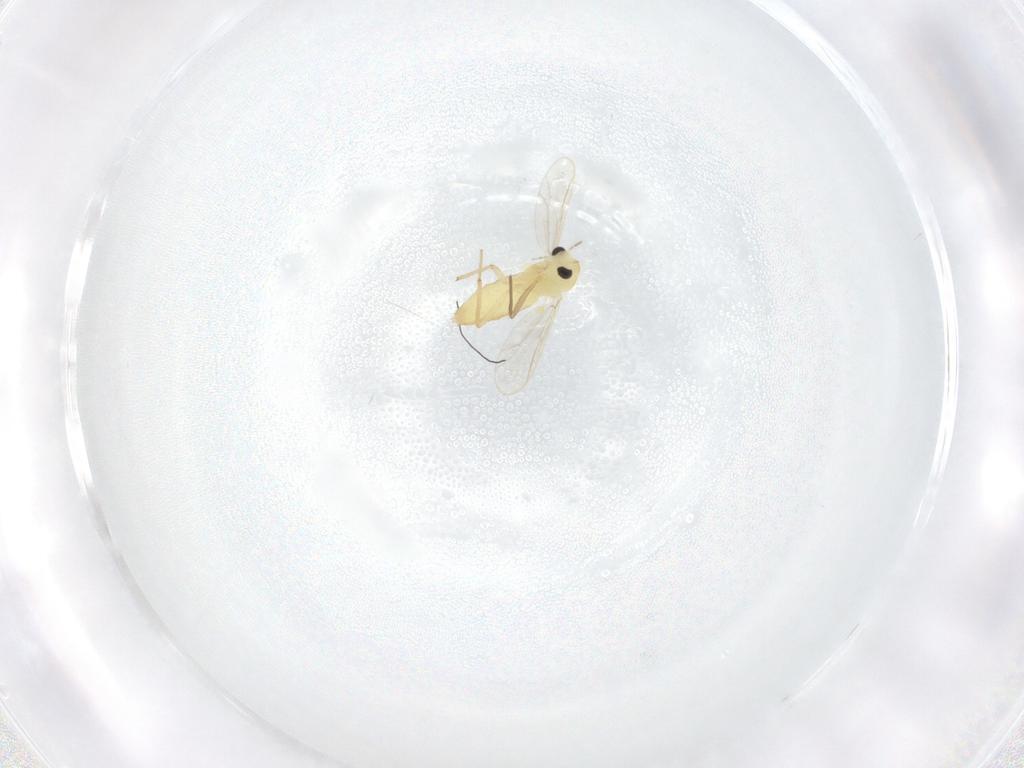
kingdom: Animalia
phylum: Arthropoda
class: Insecta
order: Diptera
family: Chironomidae
